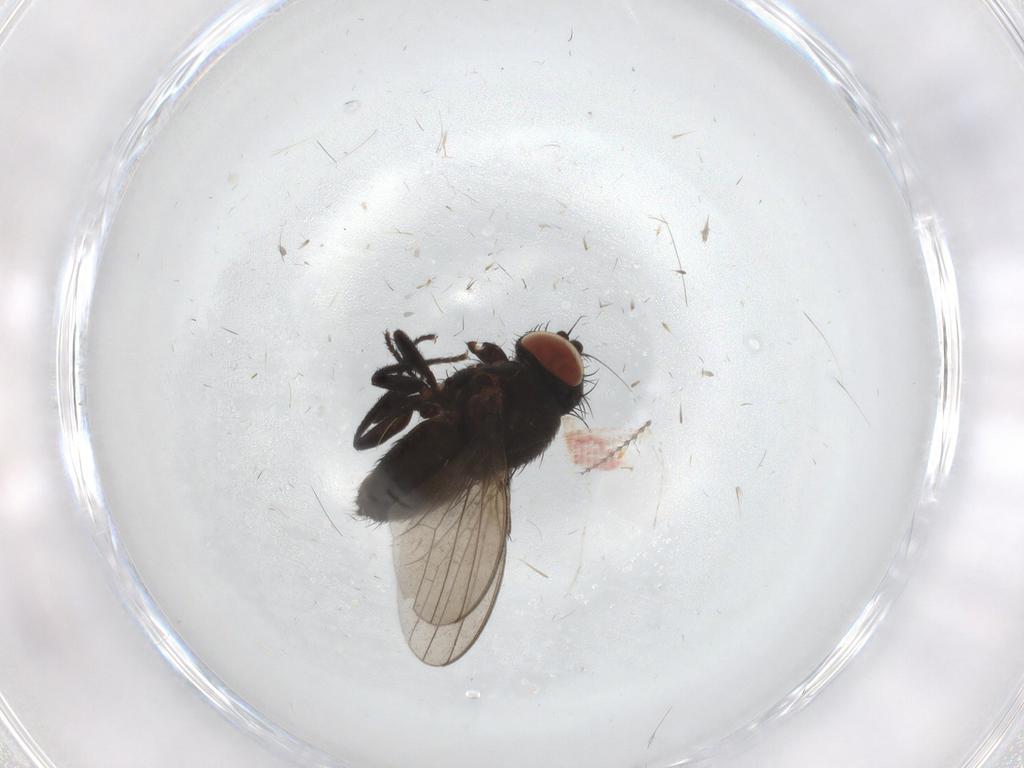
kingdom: Animalia
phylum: Arthropoda
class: Insecta
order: Diptera
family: Milichiidae
